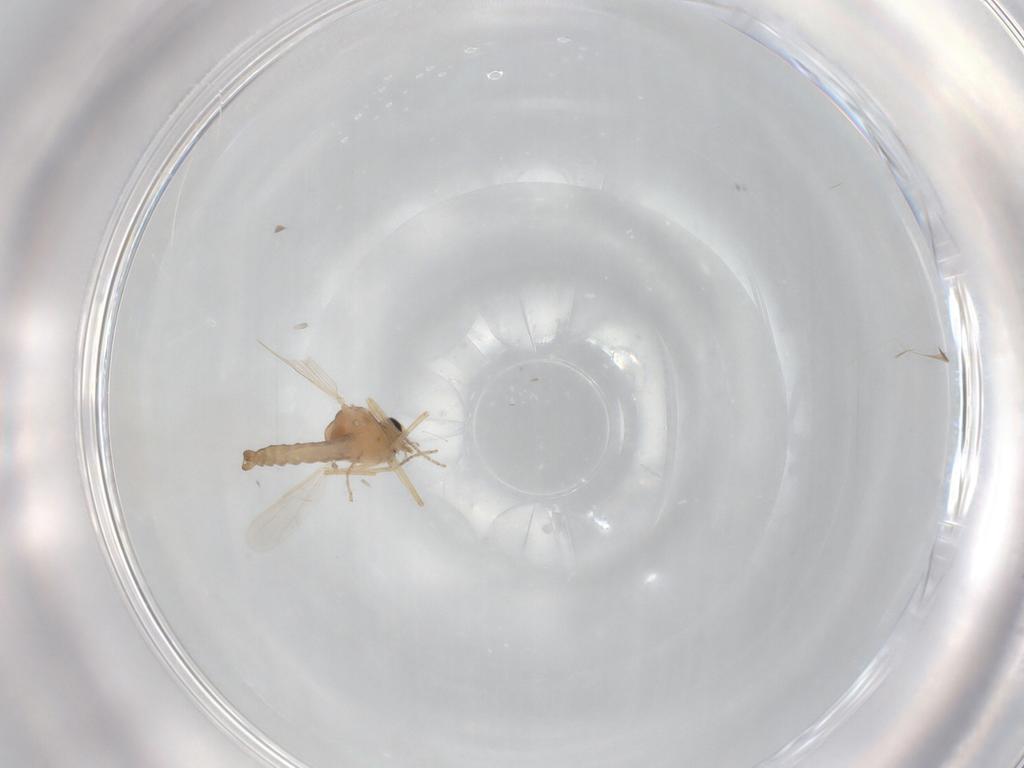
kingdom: Animalia
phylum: Arthropoda
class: Insecta
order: Diptera
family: Ceratopogonidae
